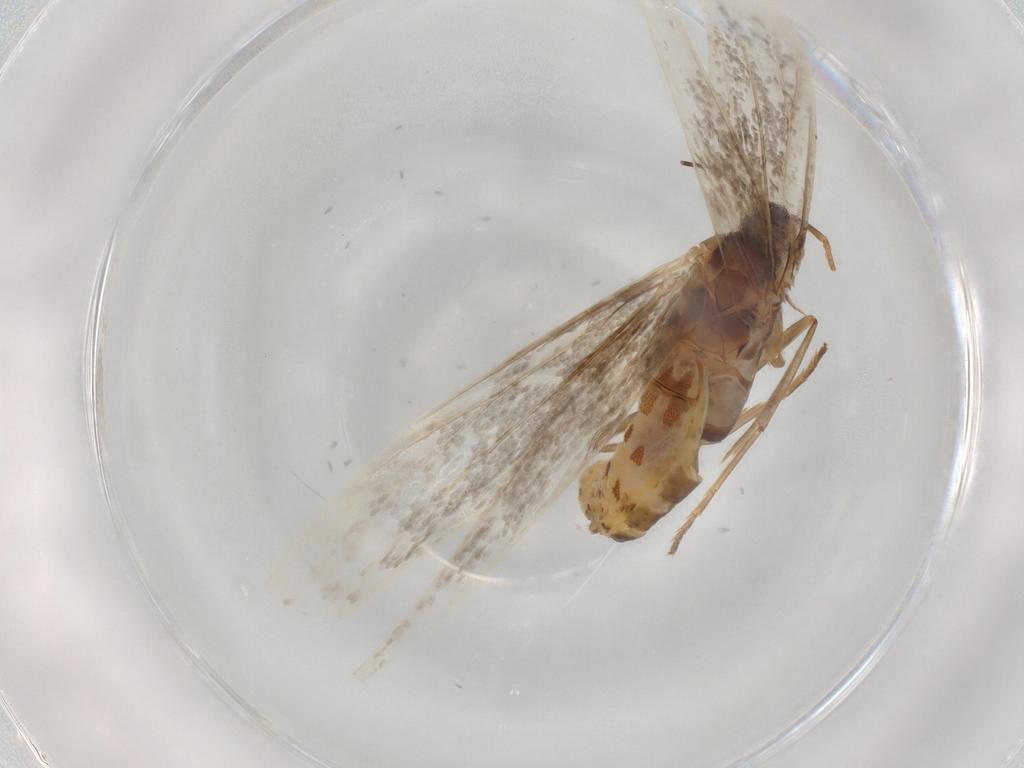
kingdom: Animalia
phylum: Arthropoda
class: Insecta
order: Lepidoptera
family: Coleophoridae
